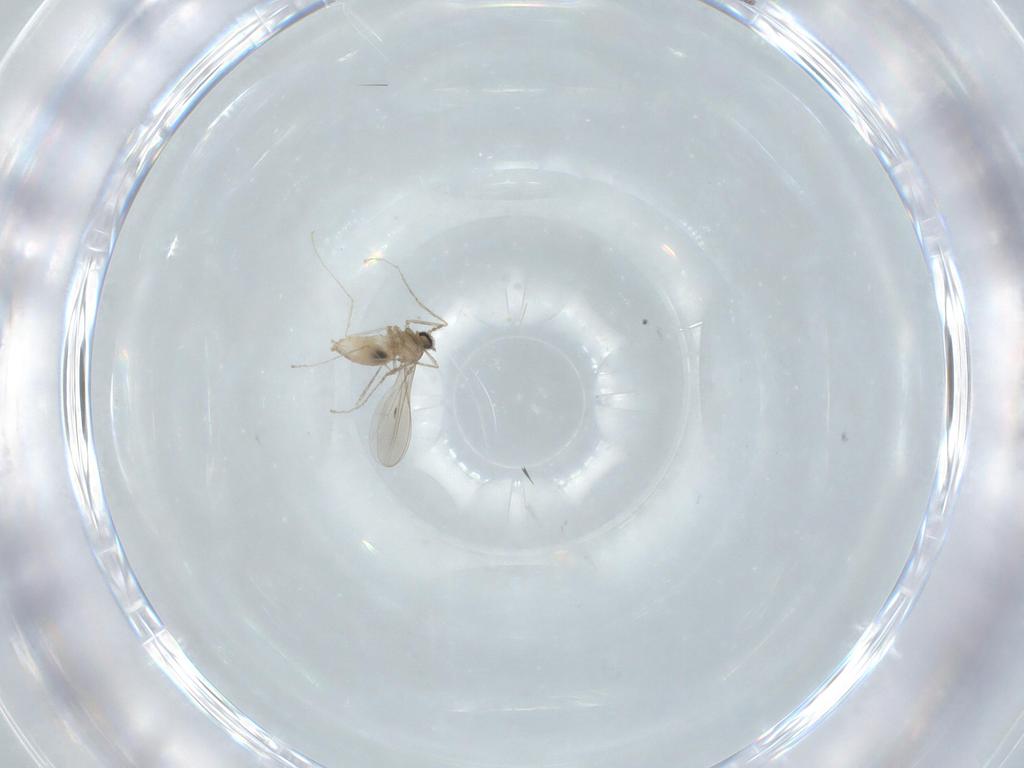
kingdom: Animalia
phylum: Arthropoda
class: Insecta
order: Diptera
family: Cecidomyiidae
